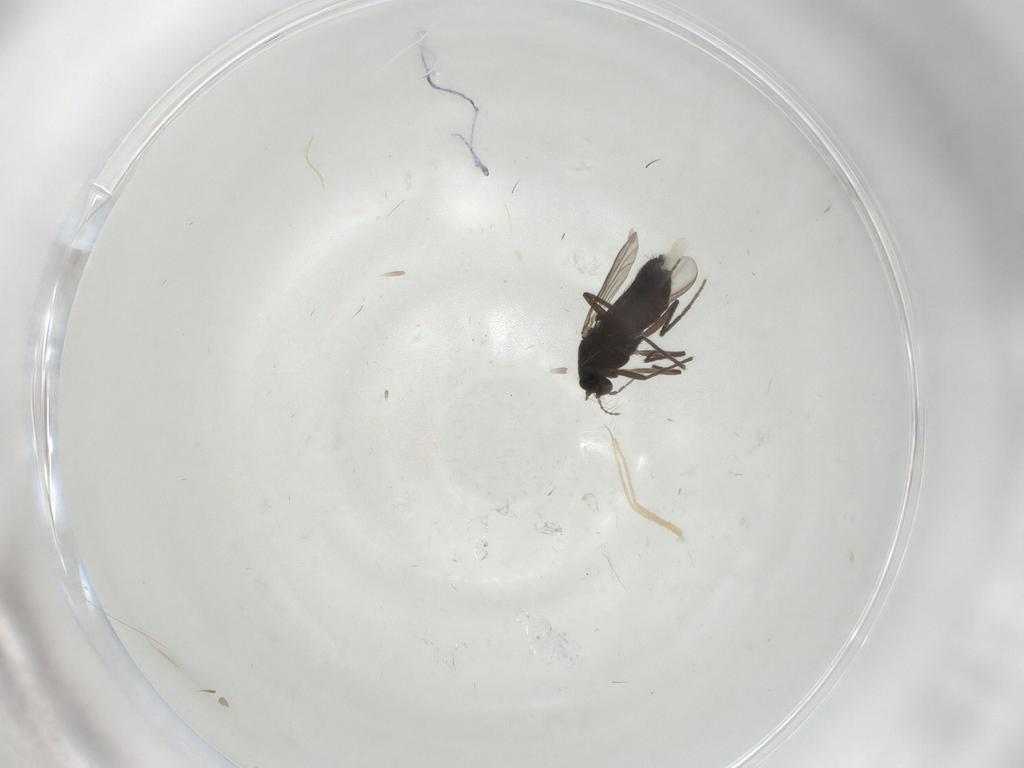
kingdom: Animalia
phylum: Arthropoda
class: Insecta
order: Diptera
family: Chironomidae
